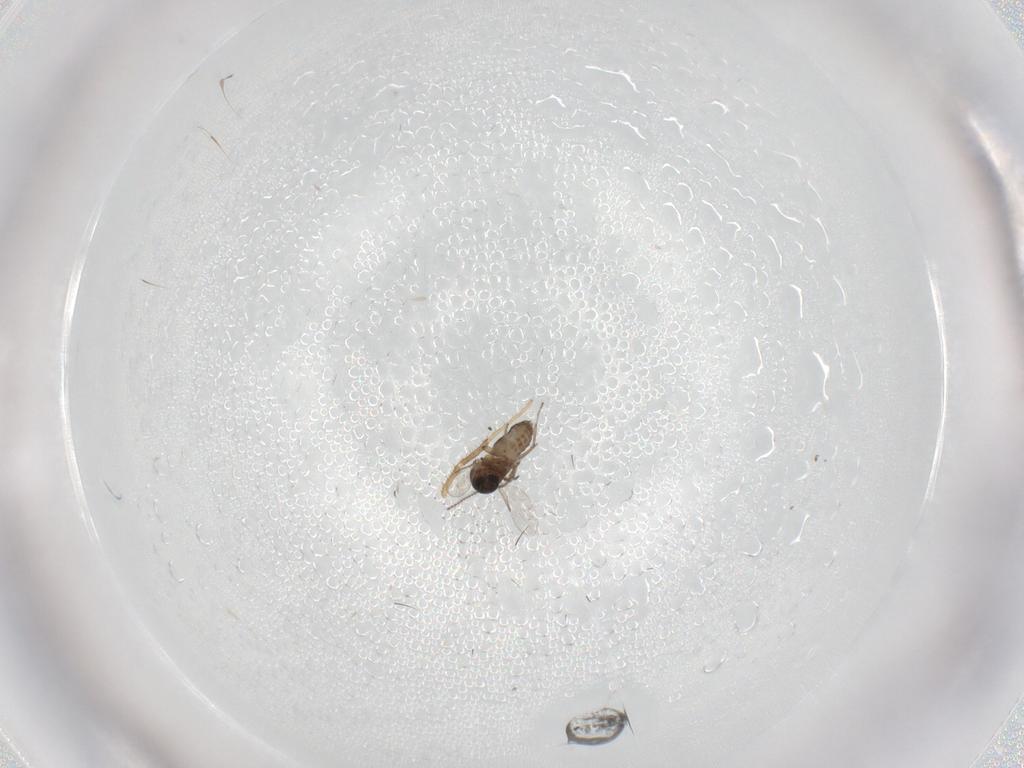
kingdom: Animalia
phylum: Arthropoda
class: Insecta
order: Diptera
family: Ceratopogonidae
